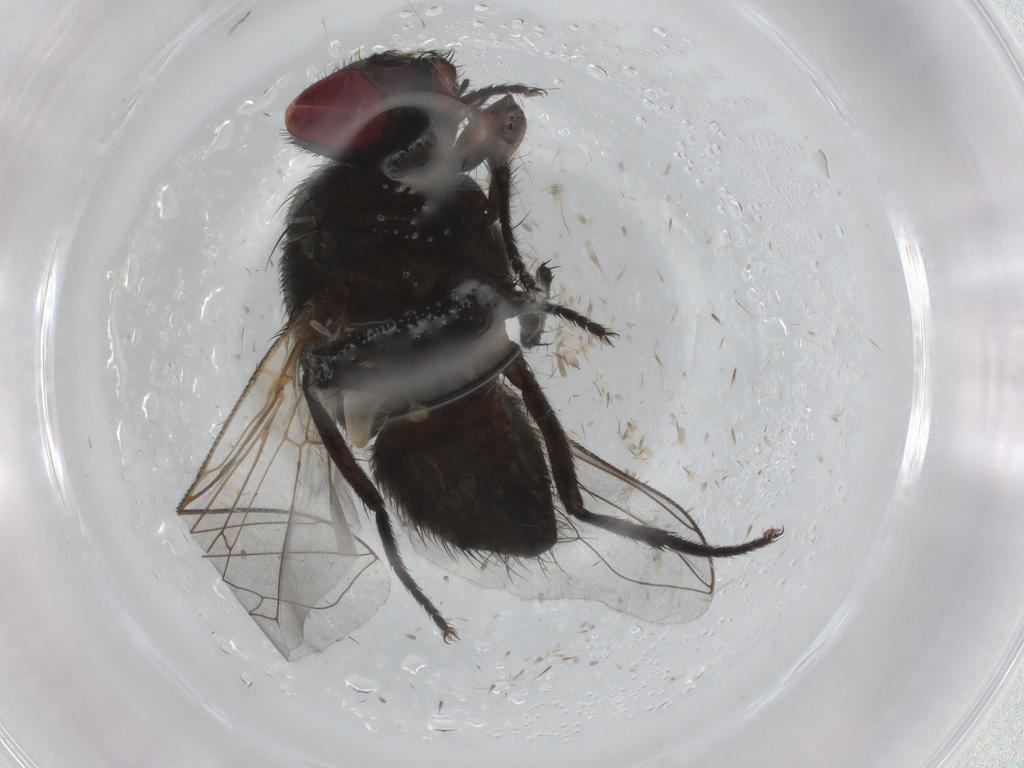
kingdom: Animalia
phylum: Arthropoda
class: Insecta
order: Diptera
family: Muscidae
